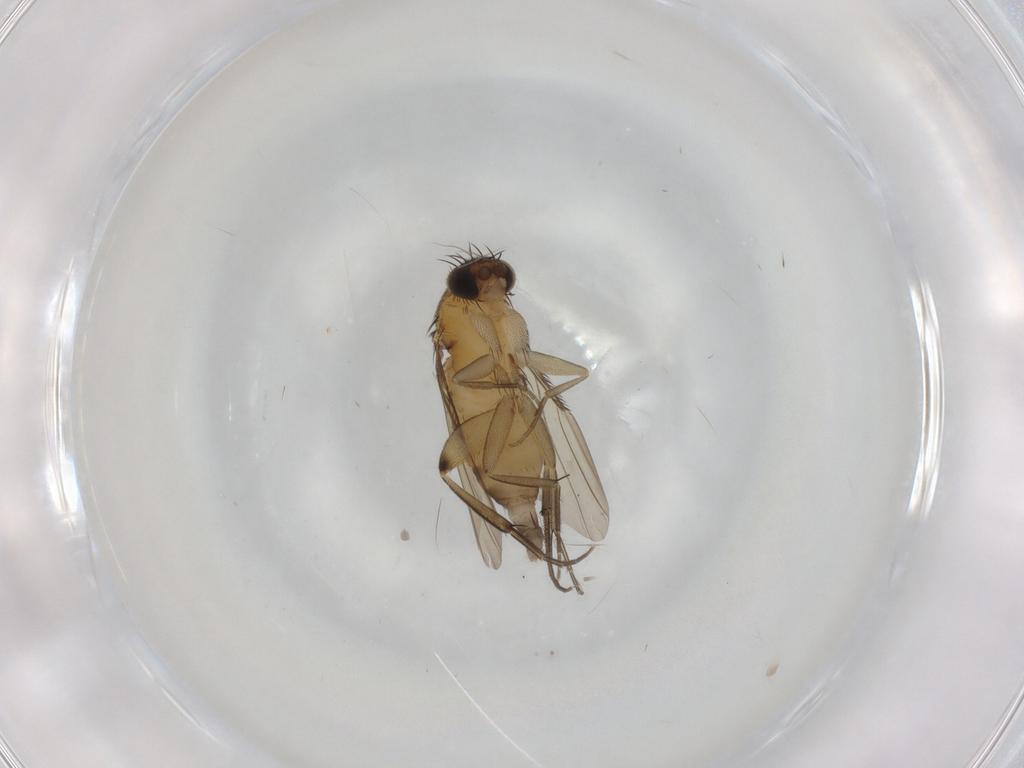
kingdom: Animalia
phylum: Arthropoda
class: Insecta
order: Diptera
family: Phoridae
